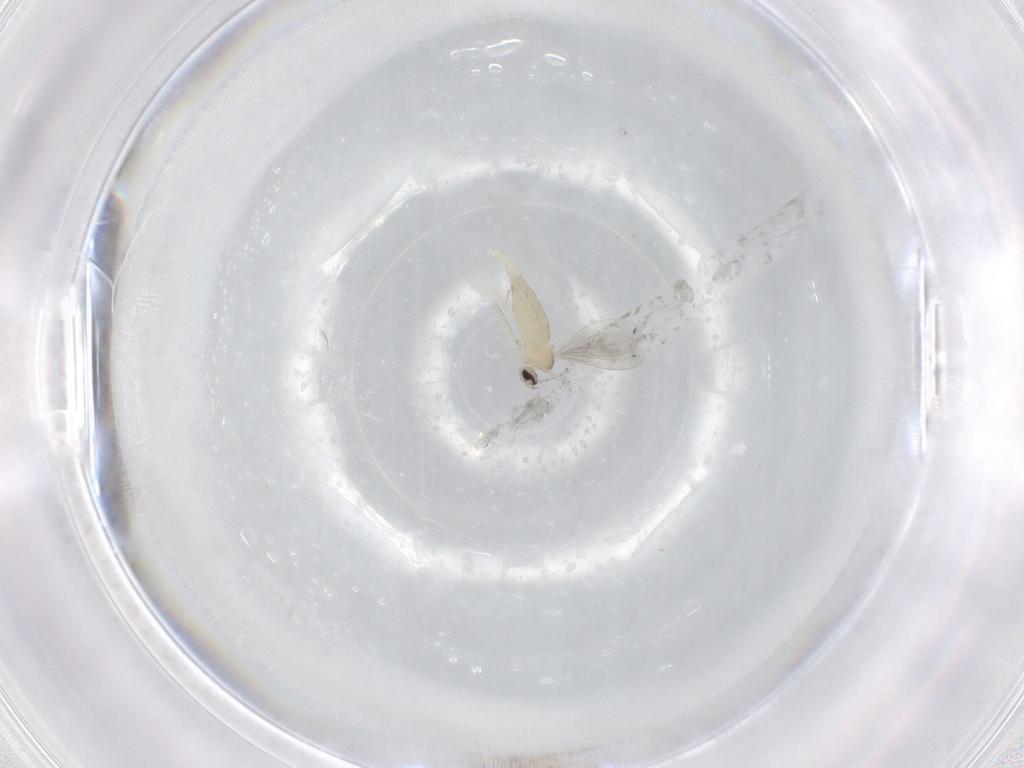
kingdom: Animalia
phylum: Arthropoda
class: Insecta
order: Diptera
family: Cecidomyiidae
